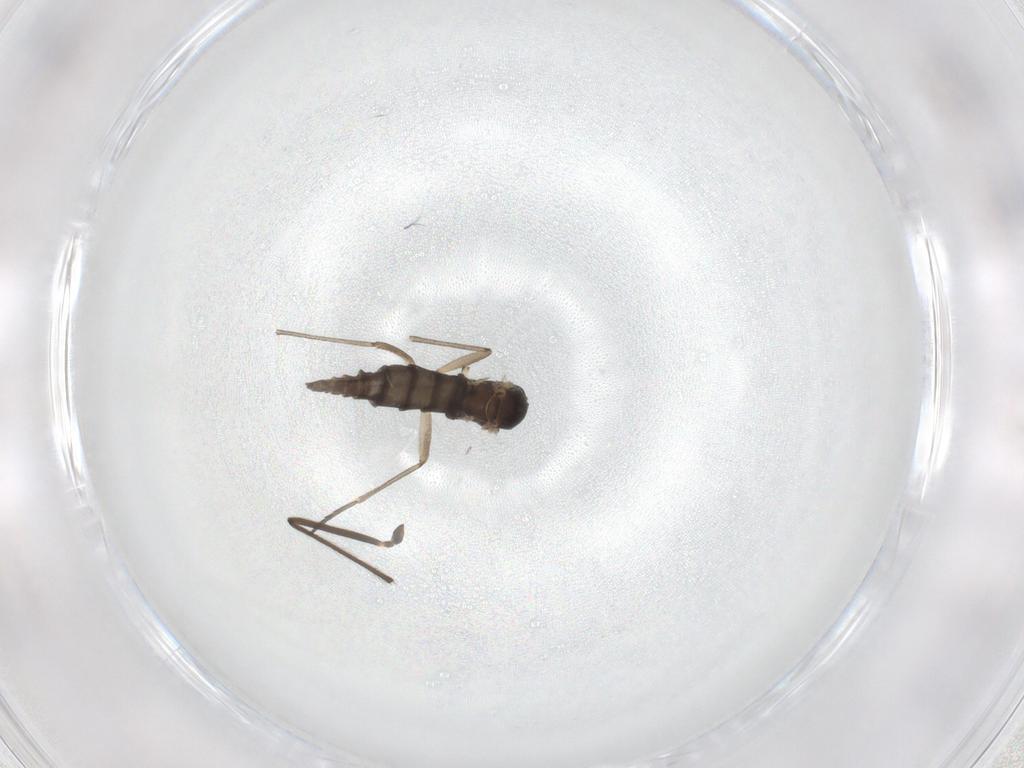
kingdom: Animalia
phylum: Arthropoda
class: Insecta
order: Diptera
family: Sciaridae
